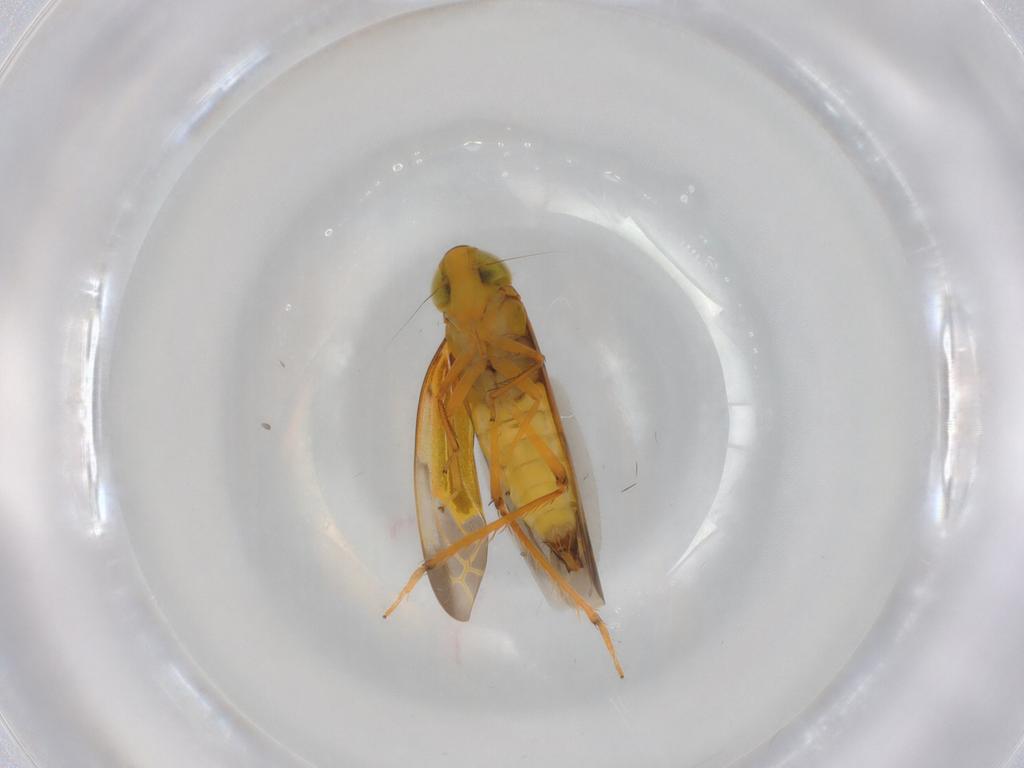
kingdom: Animalia
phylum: Arthropoda
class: Insecta
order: Hemiptera
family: Cicadellidae
